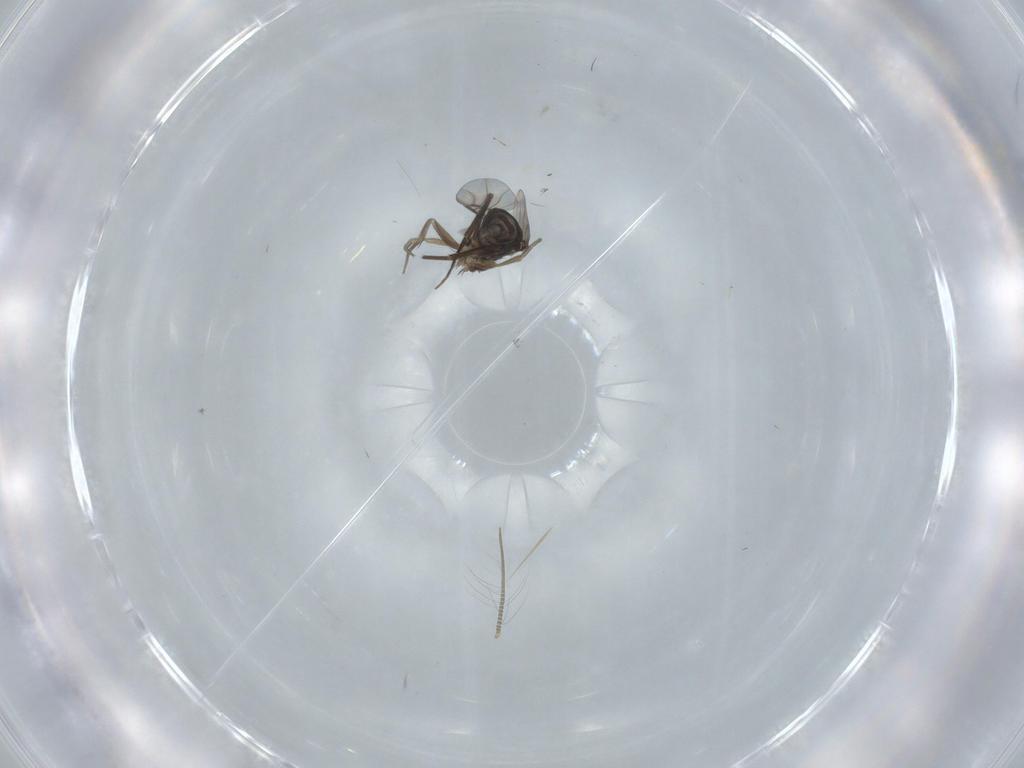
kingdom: Animalia
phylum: Arthropoda
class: Insecta
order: Diptera
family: Phoridae
